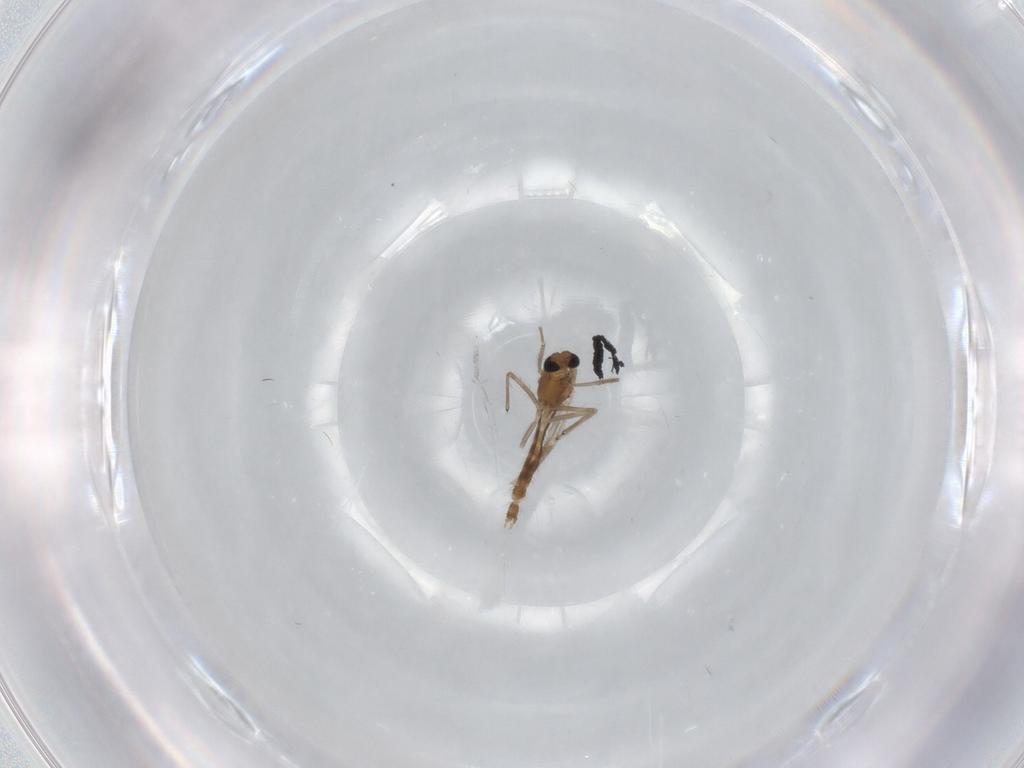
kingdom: Animalia
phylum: Arthropoda
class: Insecta
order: Diptera
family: Chironomidae
